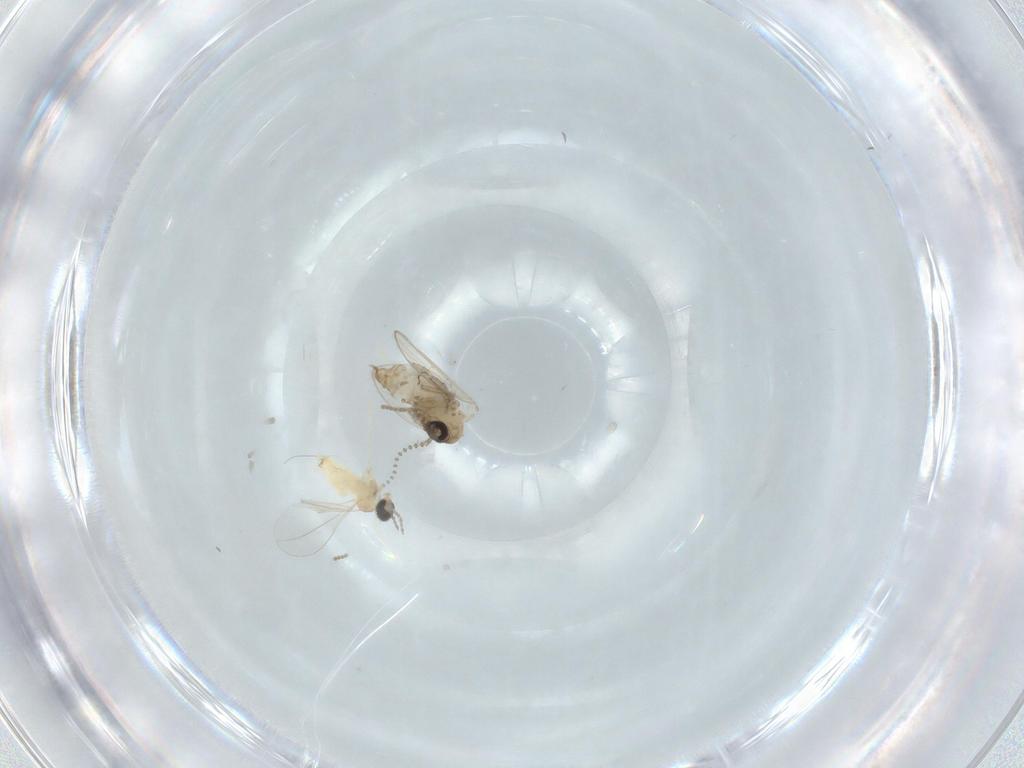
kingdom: Animalia
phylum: Arthropoda
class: Insecta
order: Diptera
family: Psychodidae
